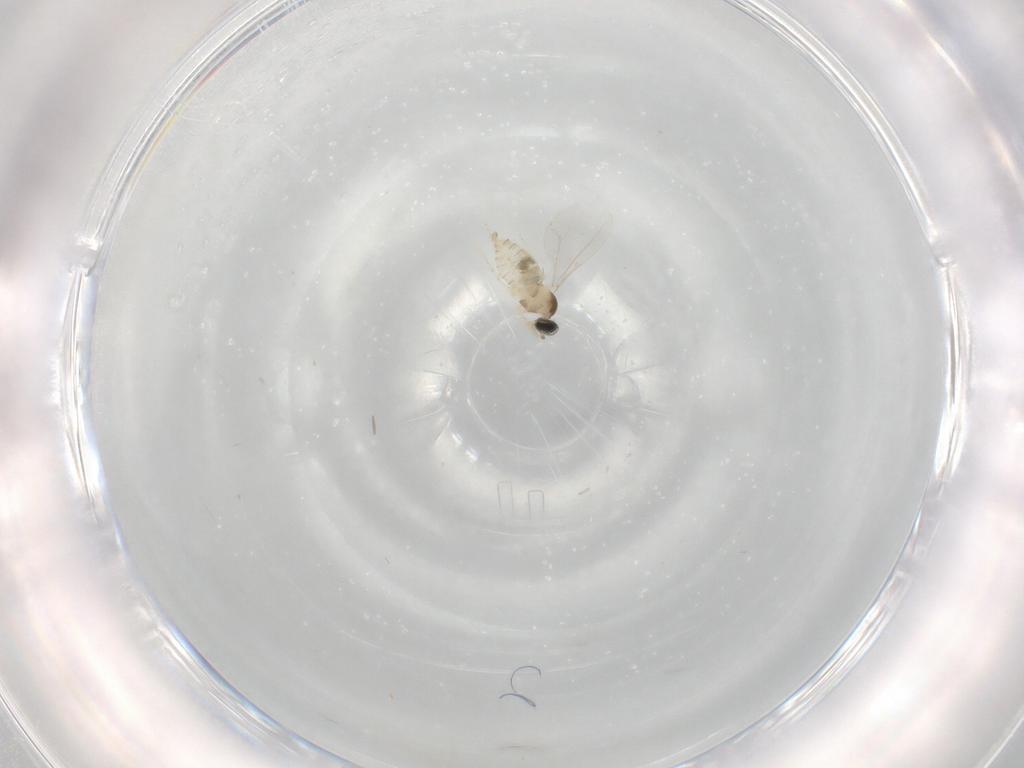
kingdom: Animalia
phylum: Arthropoda
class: Insecta
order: Diptera
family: Cecidomyiidae
